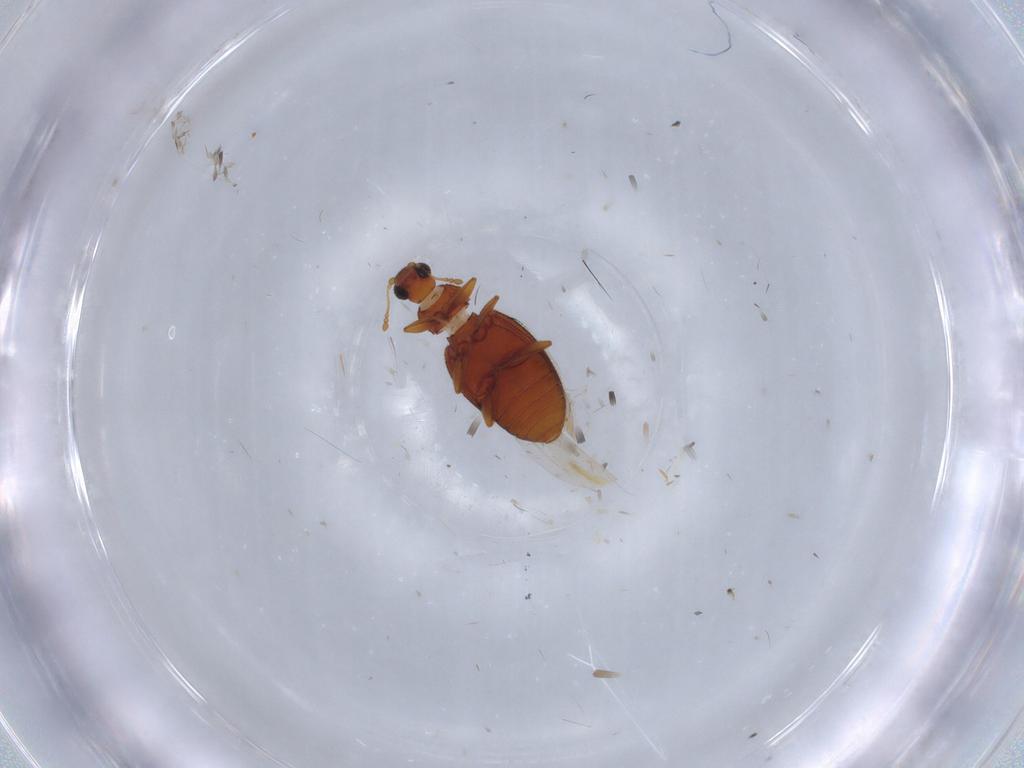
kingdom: Animalia
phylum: Arthropoda
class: Insecta
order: Coleoptera
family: Latridiidae
